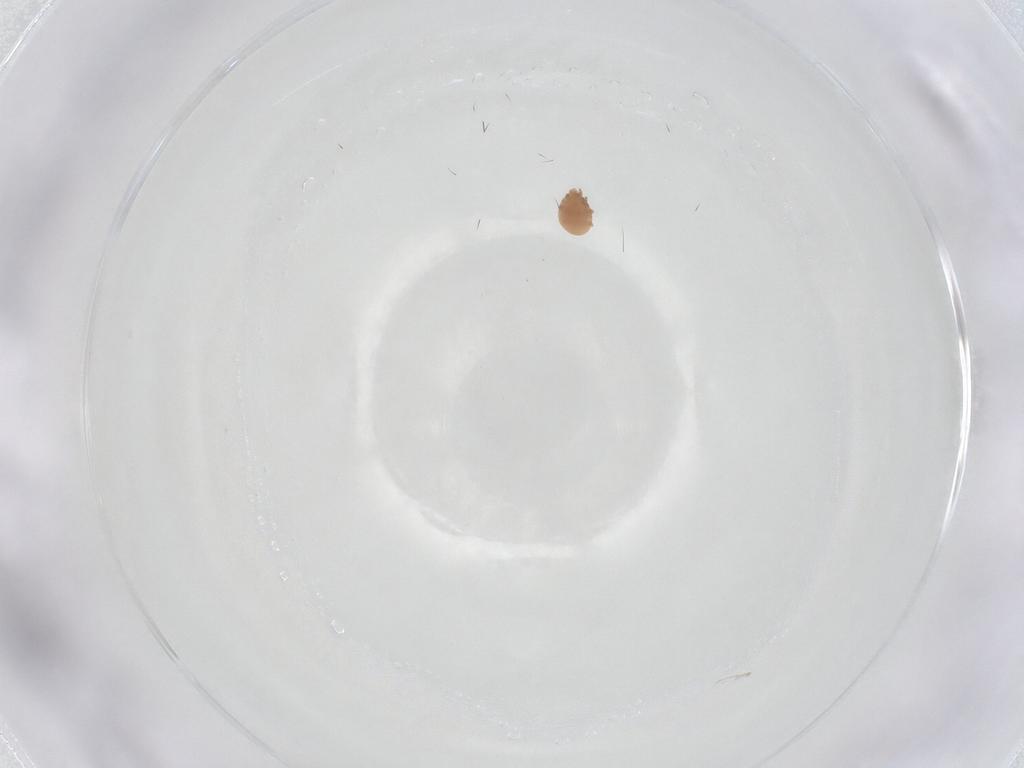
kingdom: Animalia
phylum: Arthropoda
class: Arachnida
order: Mesostigmata
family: Trematuridae
